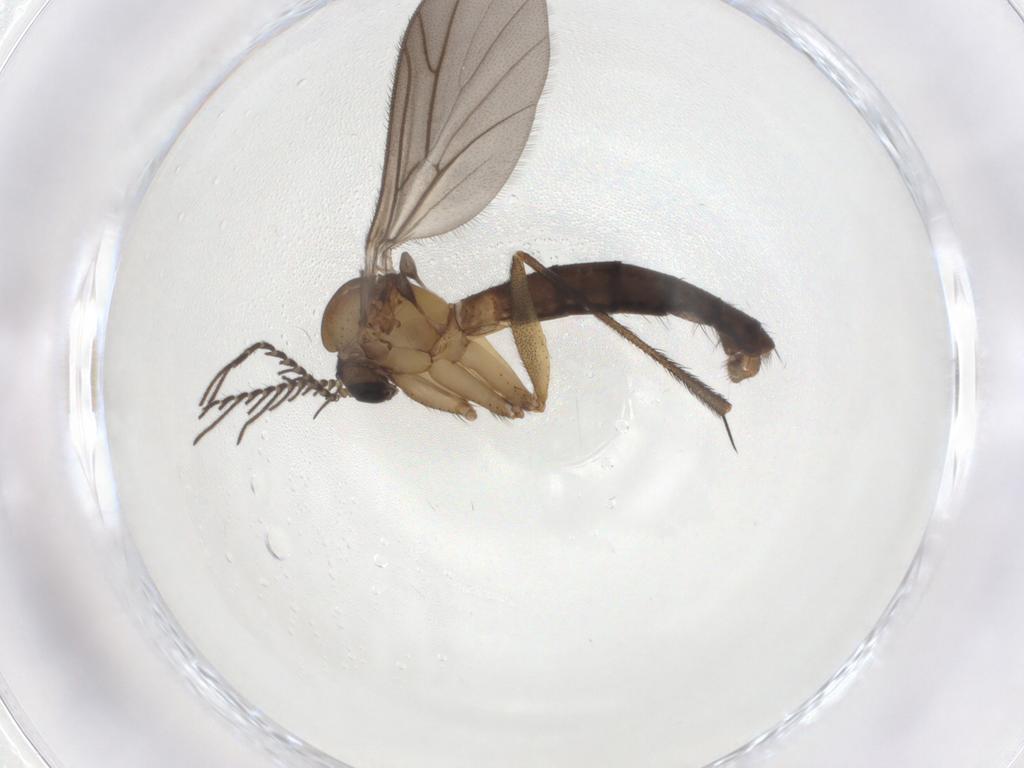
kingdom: Animalia
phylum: Arthropoda
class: Insecta
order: Diptera
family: Ditomyiidae
